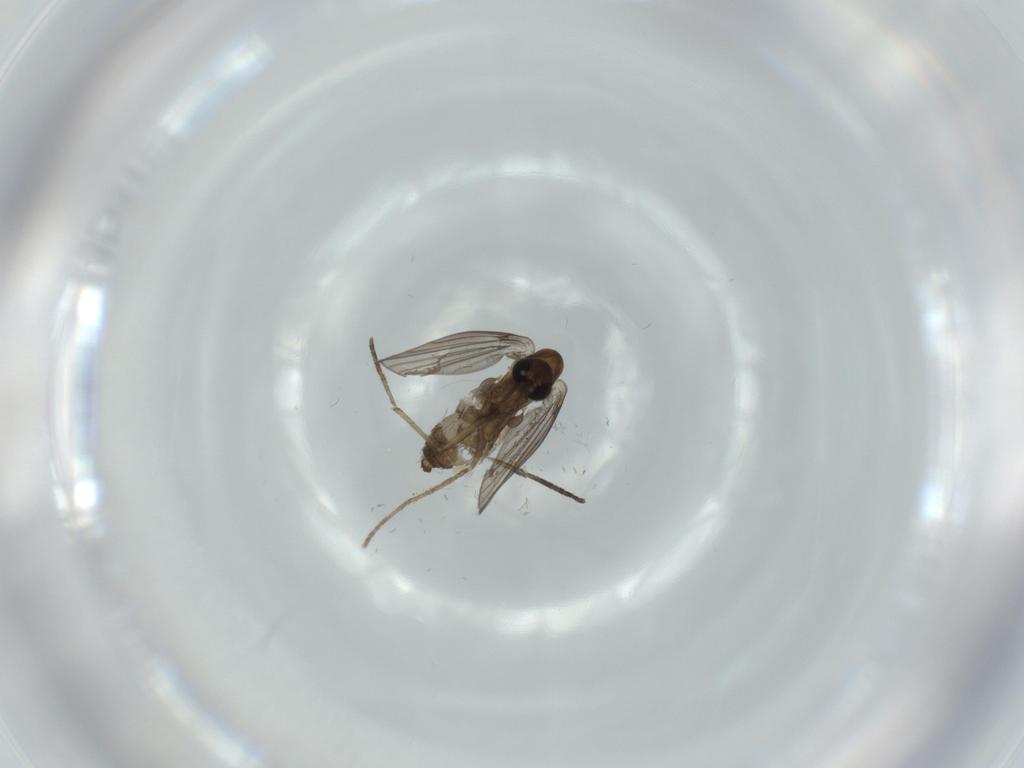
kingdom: Animalia
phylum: Arthropoda
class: Insecta
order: Diptera
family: Psychodidae
